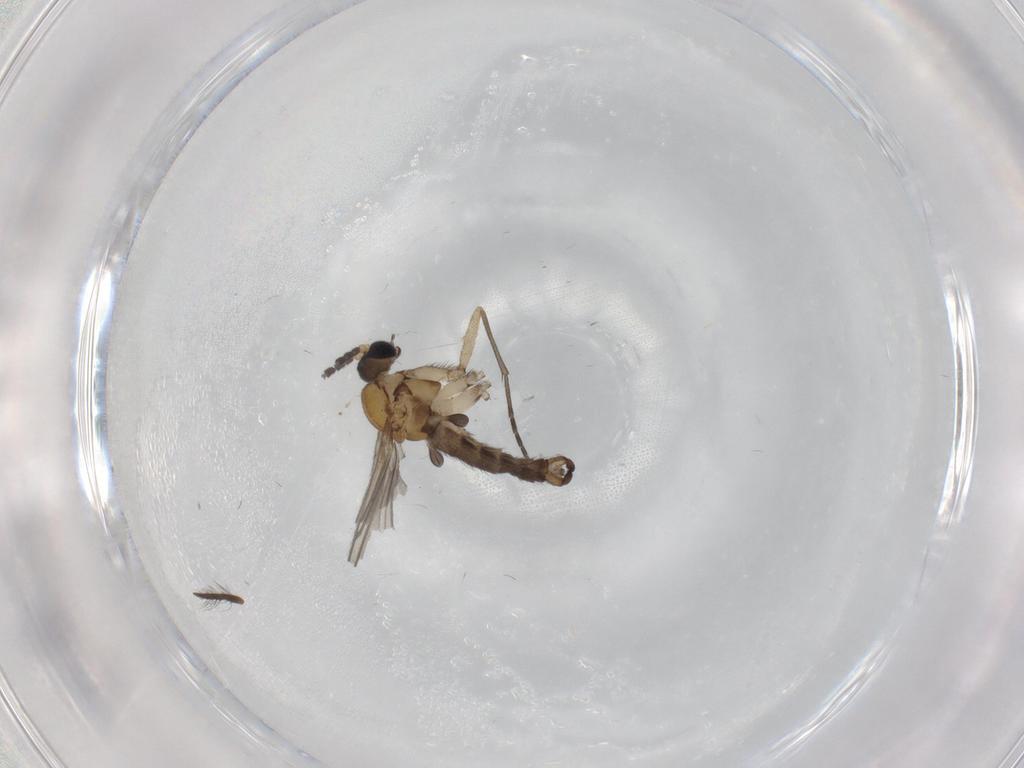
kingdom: Animalia
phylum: Arthropoda
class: Insecta
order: Diptera
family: Sciaridae
